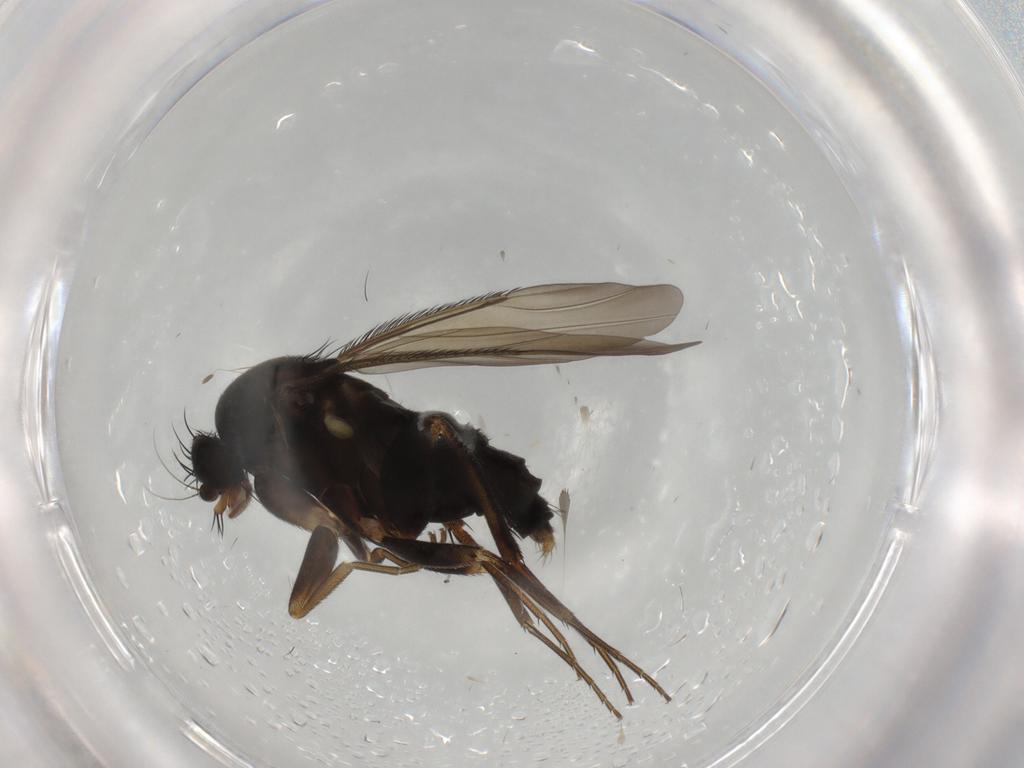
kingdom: Animalia
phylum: Arthropoda
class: Insecta
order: Diptera
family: Phoridae
